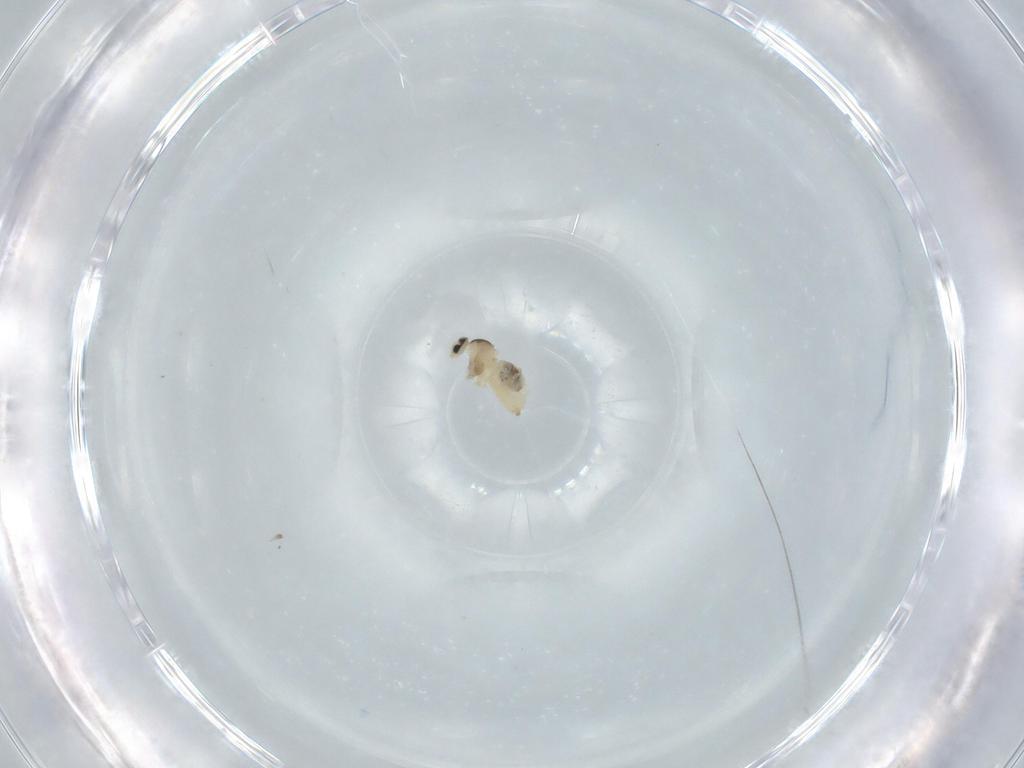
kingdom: Animalia
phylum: Arthropoda
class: Insecta
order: Diptera
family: Cecidomyiidae
